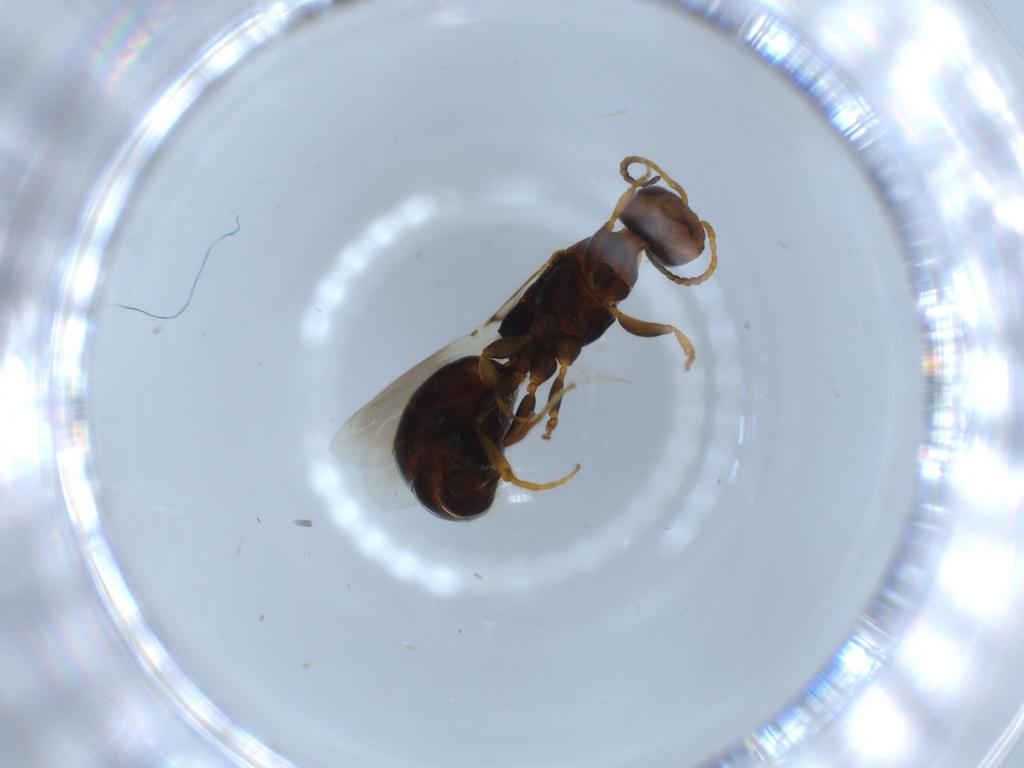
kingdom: Animalia
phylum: Arthropoda
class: Insecta
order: Hymenoptera
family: Bethylidae
